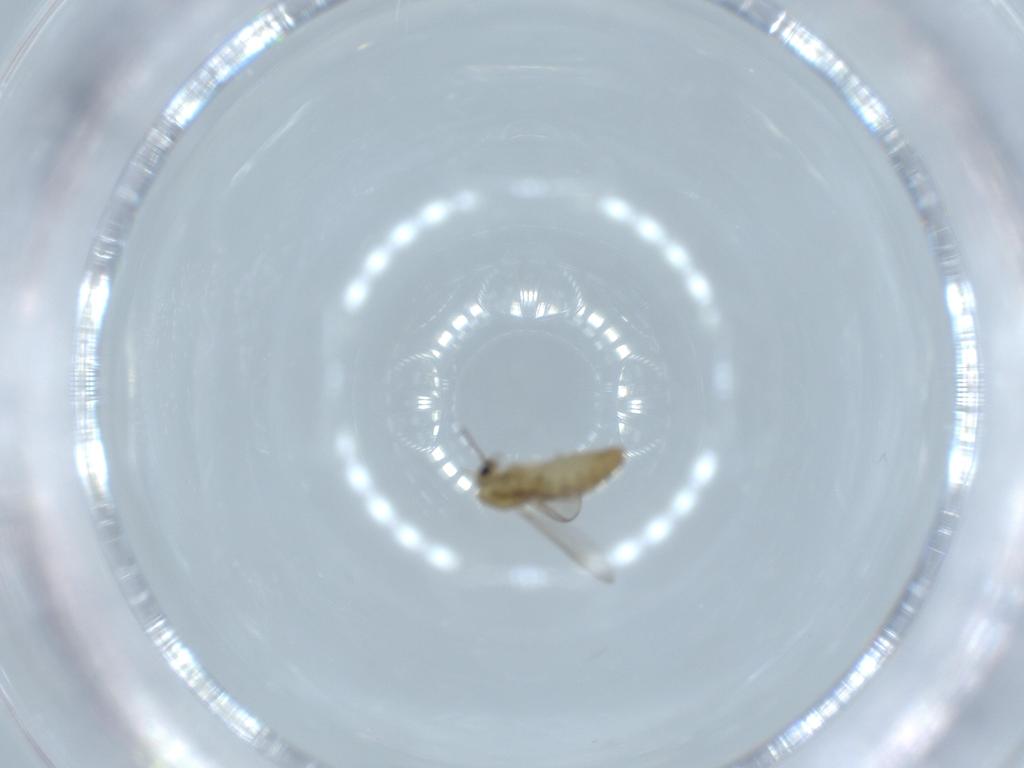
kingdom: Animalia
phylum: Arthropoda
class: Insecta
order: Diptera
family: Chironomidae
